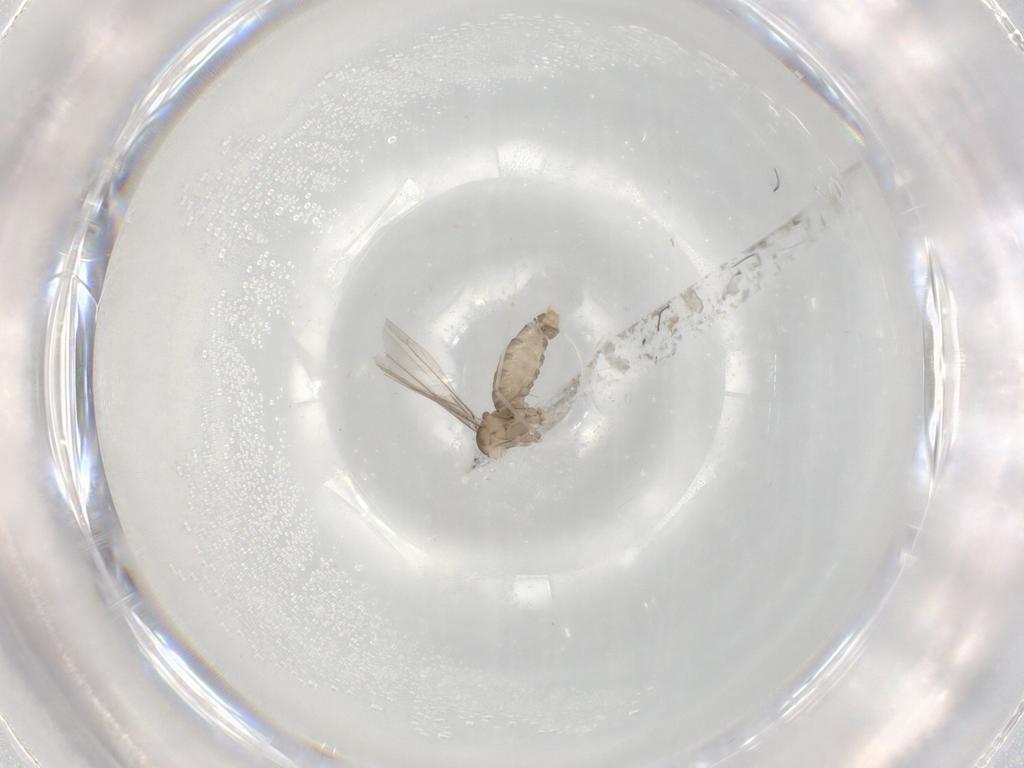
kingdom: Animalia
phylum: Arthropoda
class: Insecta
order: Diptera
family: Cecidomyiidae
